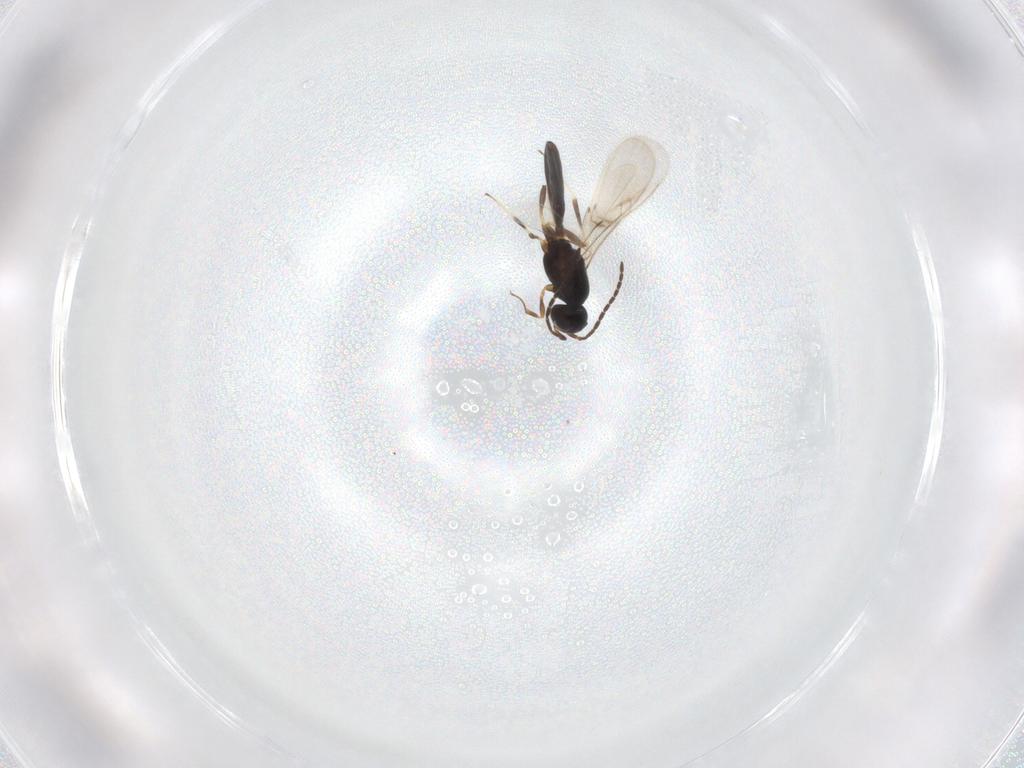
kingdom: Animalia
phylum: Arthropoda
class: Insecta
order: Hymenoptera
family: Scelionidae
